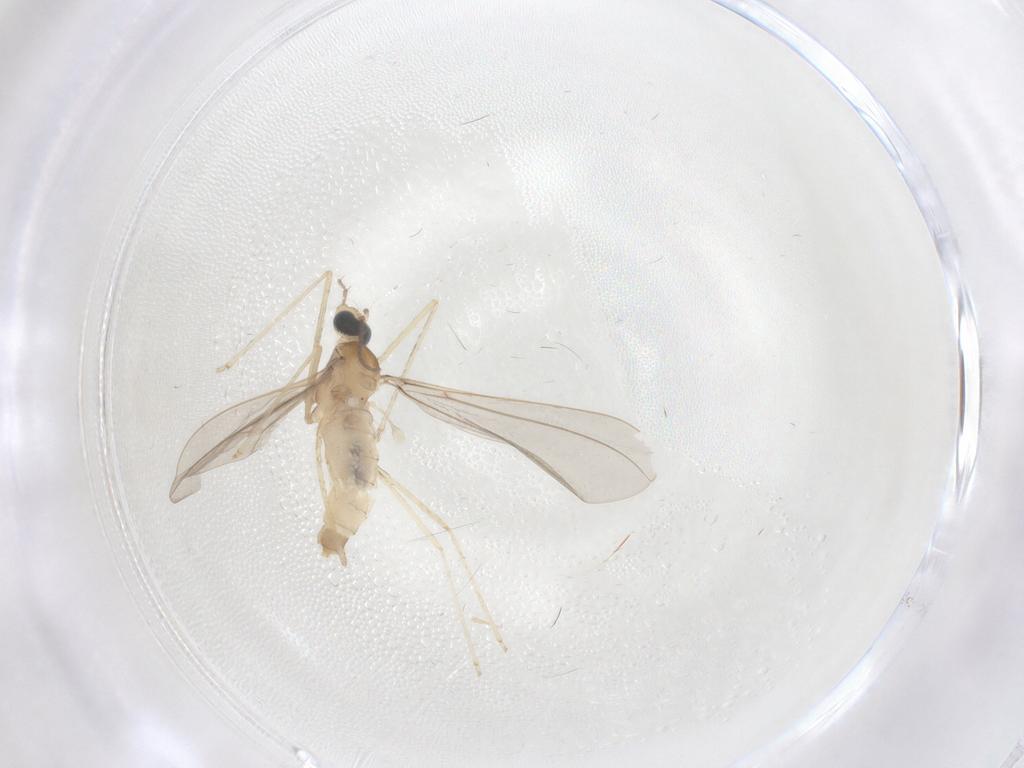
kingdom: Animalia
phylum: Arthropoda
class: Insecta
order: Diptera
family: Cecidomyiidae
